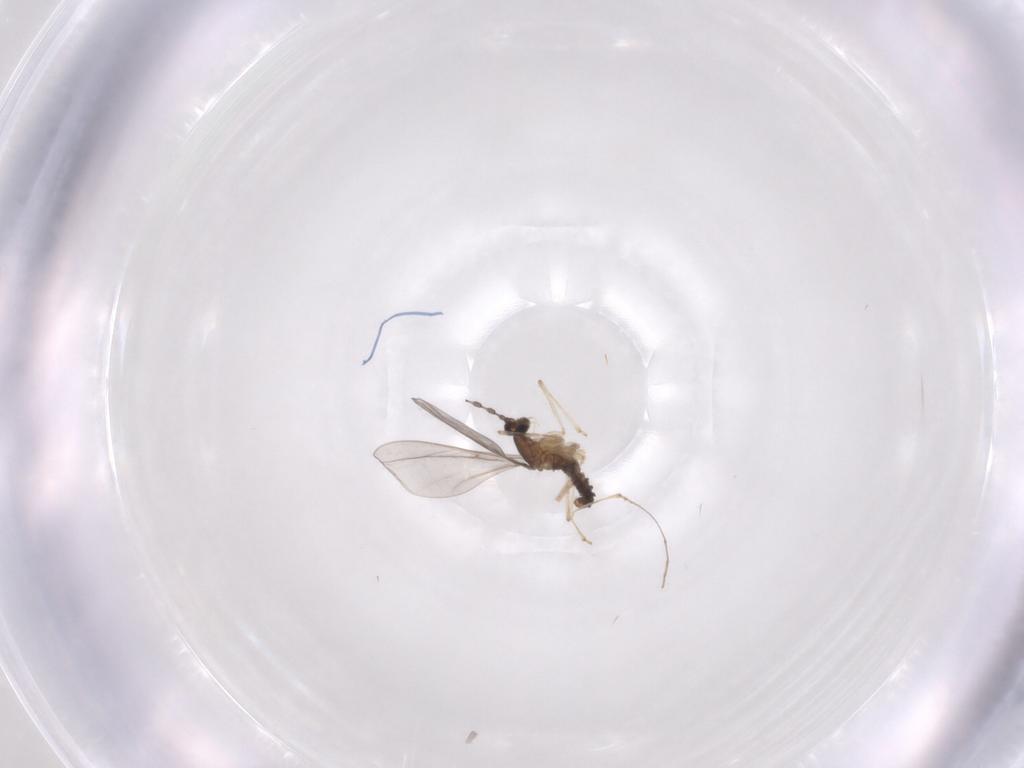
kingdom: Animalia
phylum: Arthropoda
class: Insecta
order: Diptera
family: Cecidomyiidae
